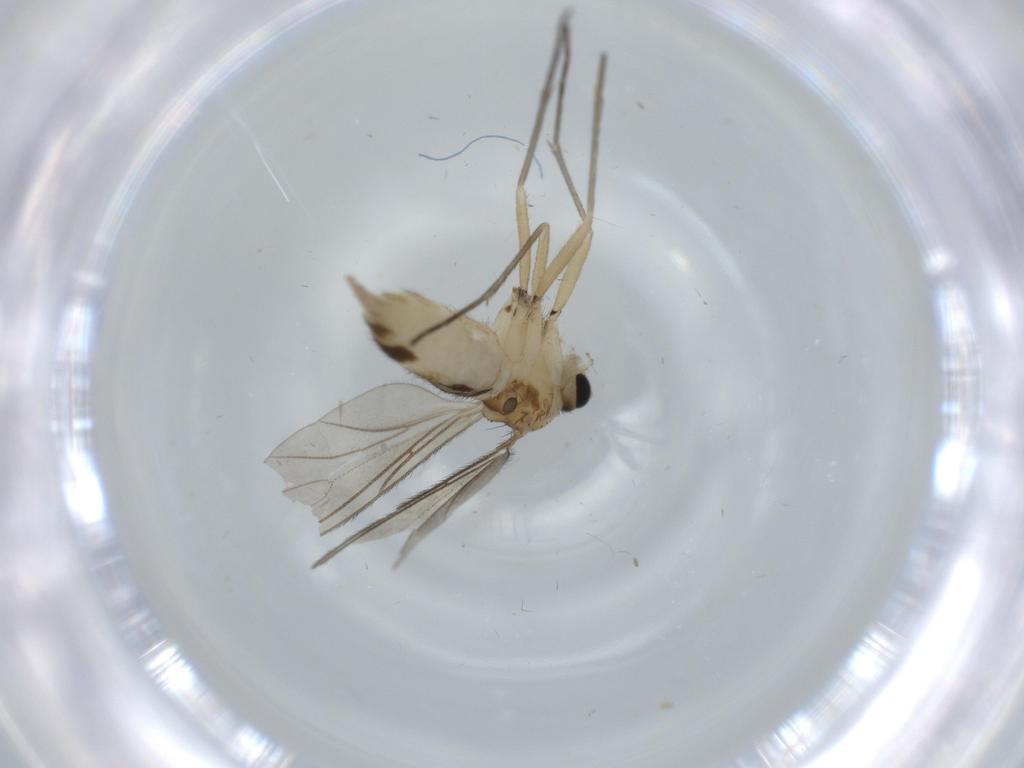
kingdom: Animalia
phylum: Arthropoda
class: Insecta
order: Diptera
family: Sciaridae
